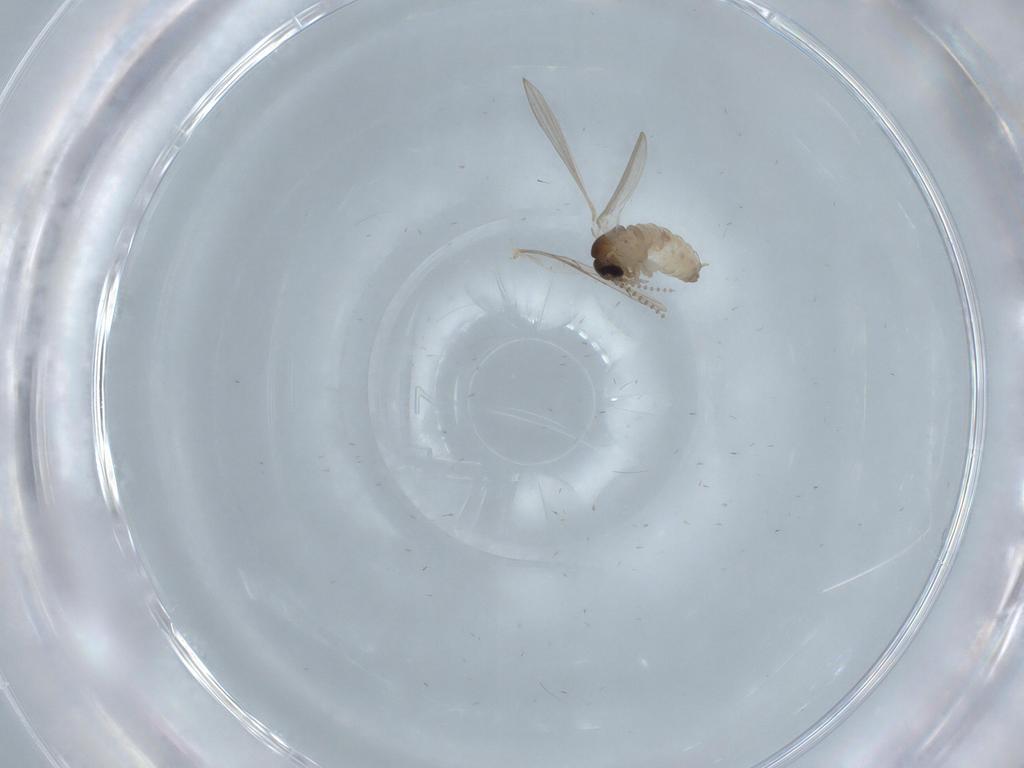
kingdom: Animalia
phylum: Arthropoda
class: Insecta
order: Diptera
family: Psychodidae
